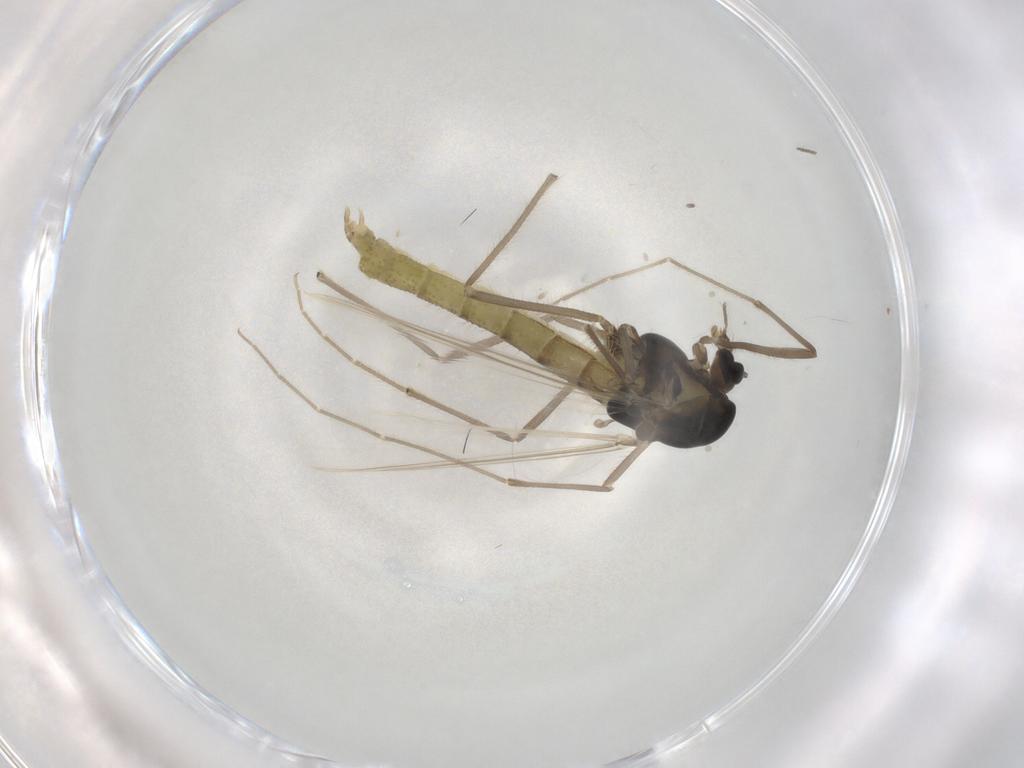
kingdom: Animalia
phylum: Arthropoda
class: Insecta
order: Diptera
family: Chironomidae
